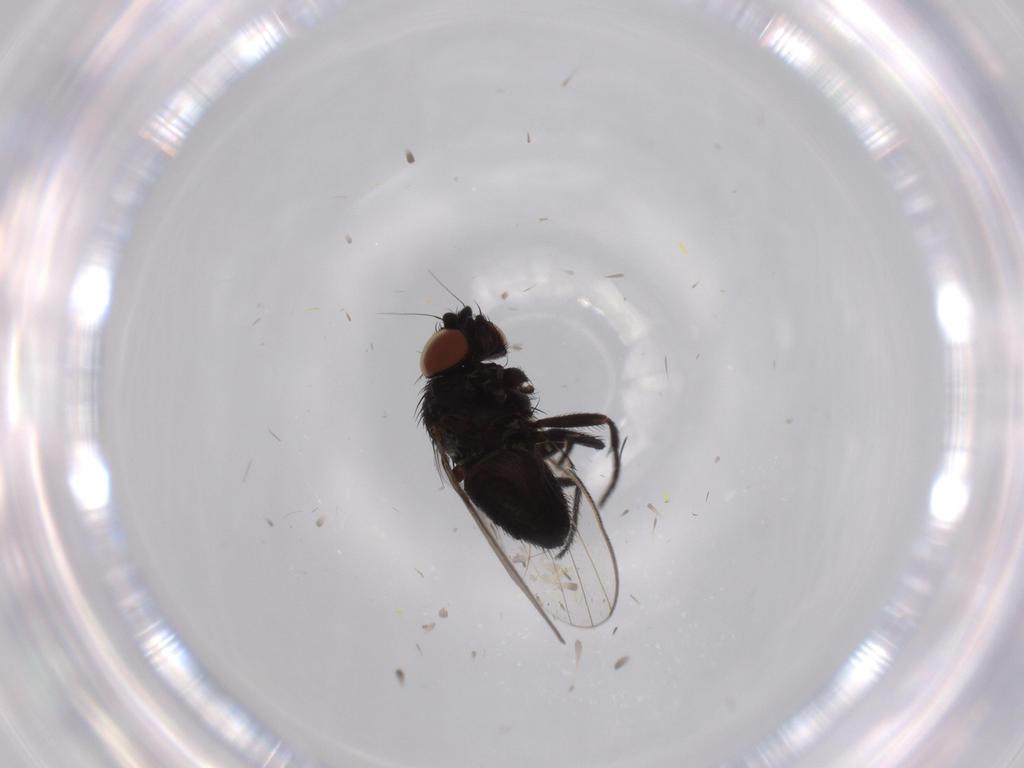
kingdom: Animalia
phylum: Arthropoda
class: Insecta
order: Diptera
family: Milichiidae
